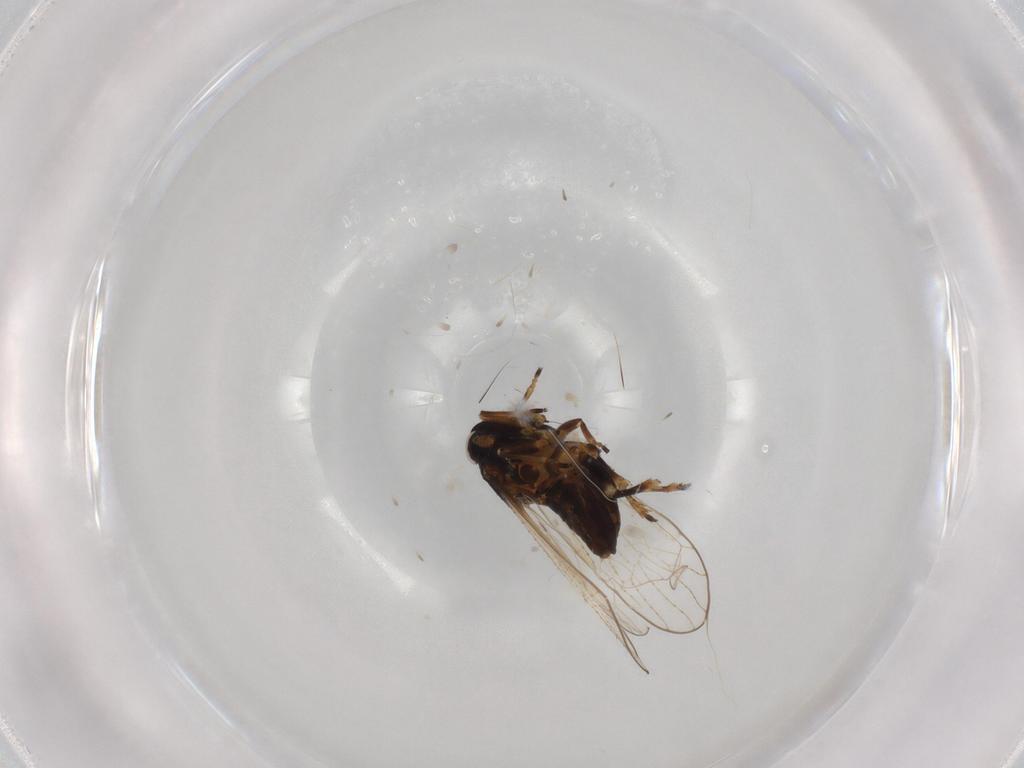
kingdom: Animalia
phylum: Arthropoda
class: Insecta
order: Hemiptera
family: Delphacidae
